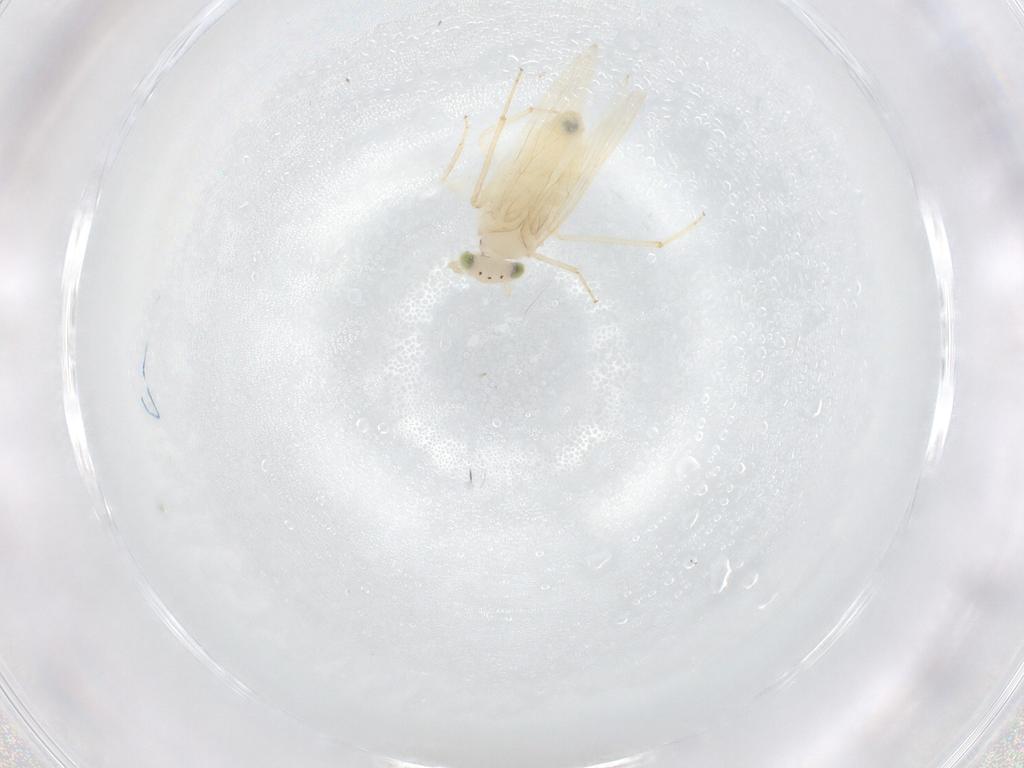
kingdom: Animalia
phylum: Arthropoda
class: Insecta
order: Psocodea
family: Lepidopsocidae
